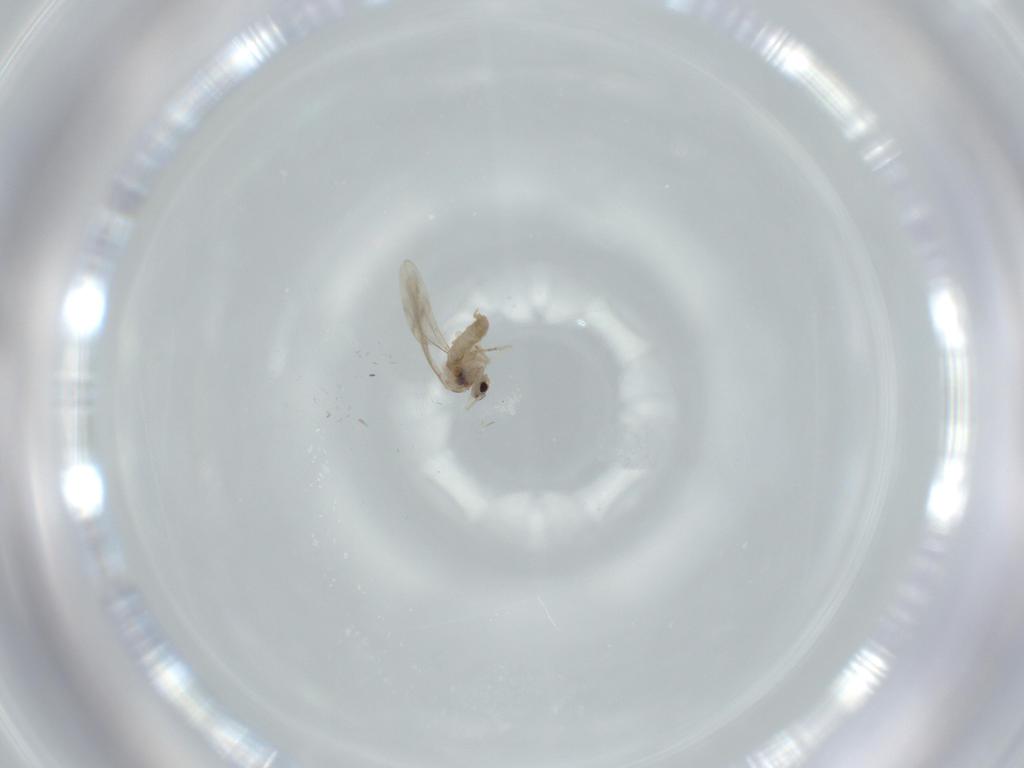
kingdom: Animalia
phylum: Arthropoda
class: Insecta
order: Diptera
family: Cecidomyiidae
